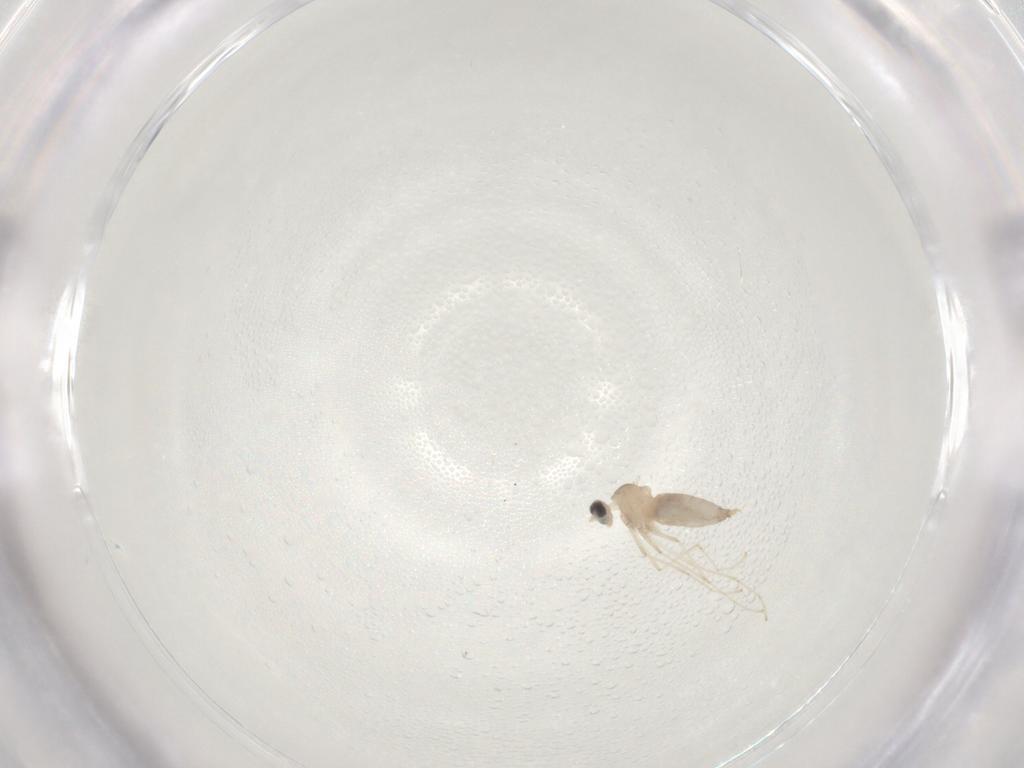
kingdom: Animalia
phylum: Arthropoda
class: Insecta
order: Diptera
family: Cecidomyiidae
